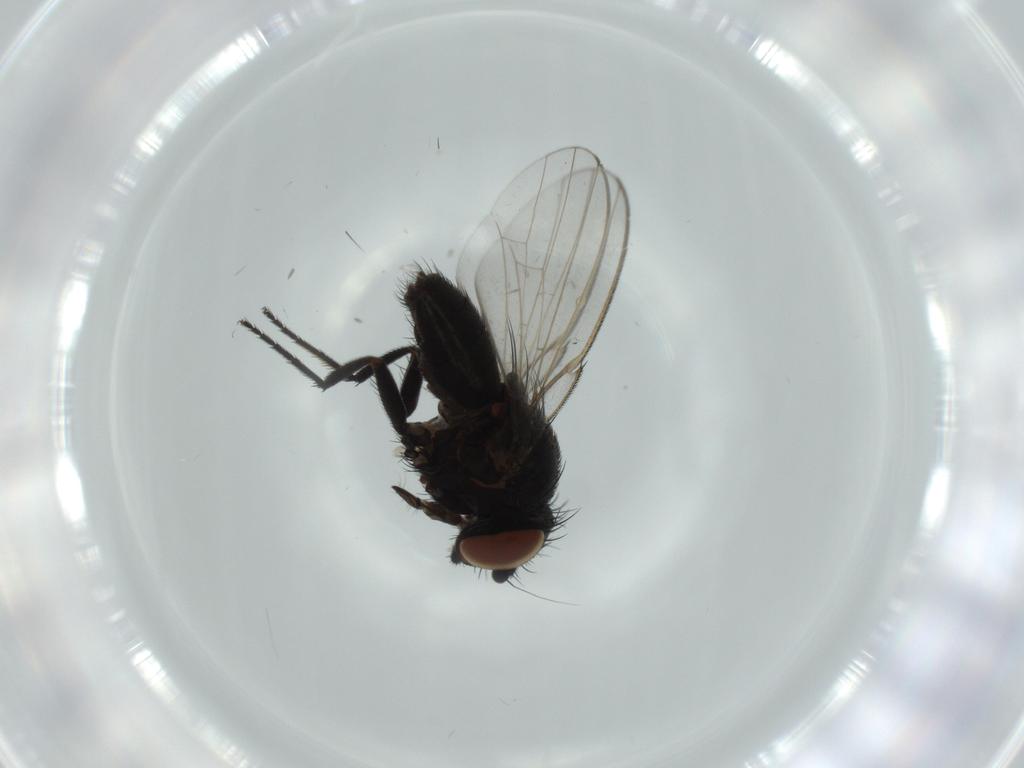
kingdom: Animalia
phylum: Arthropoda
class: Insecta
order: Diptera
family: Milichiidae
